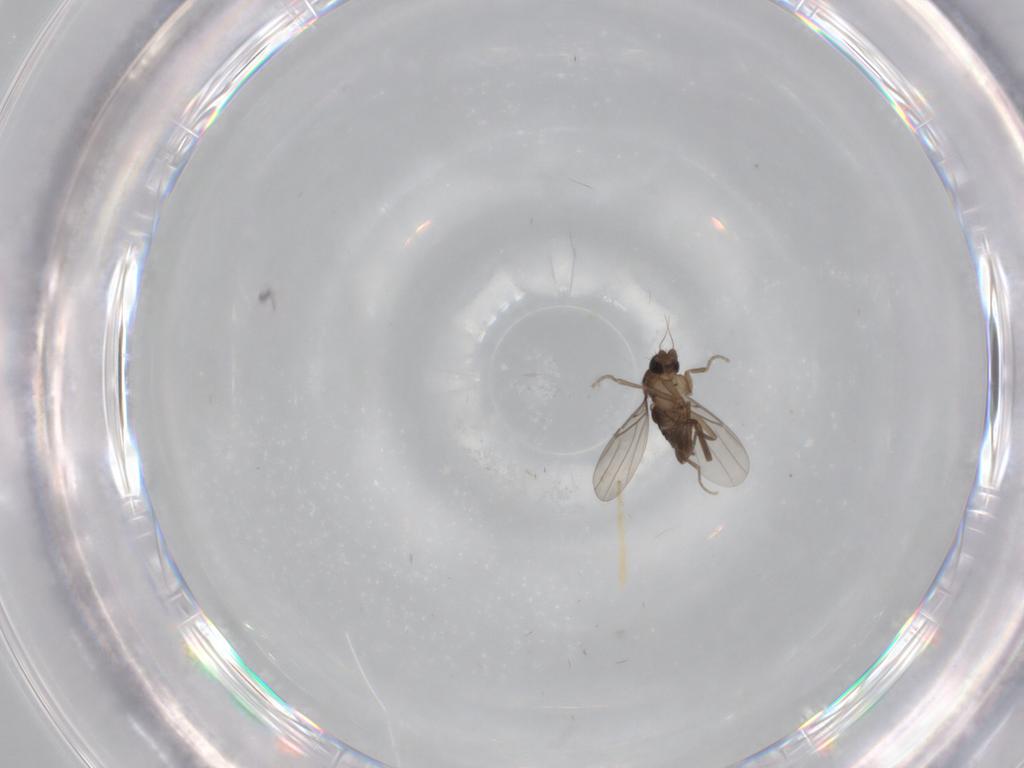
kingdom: Animalia
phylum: Arthropoda
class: Insecta
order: Diptera
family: Chironomidae
